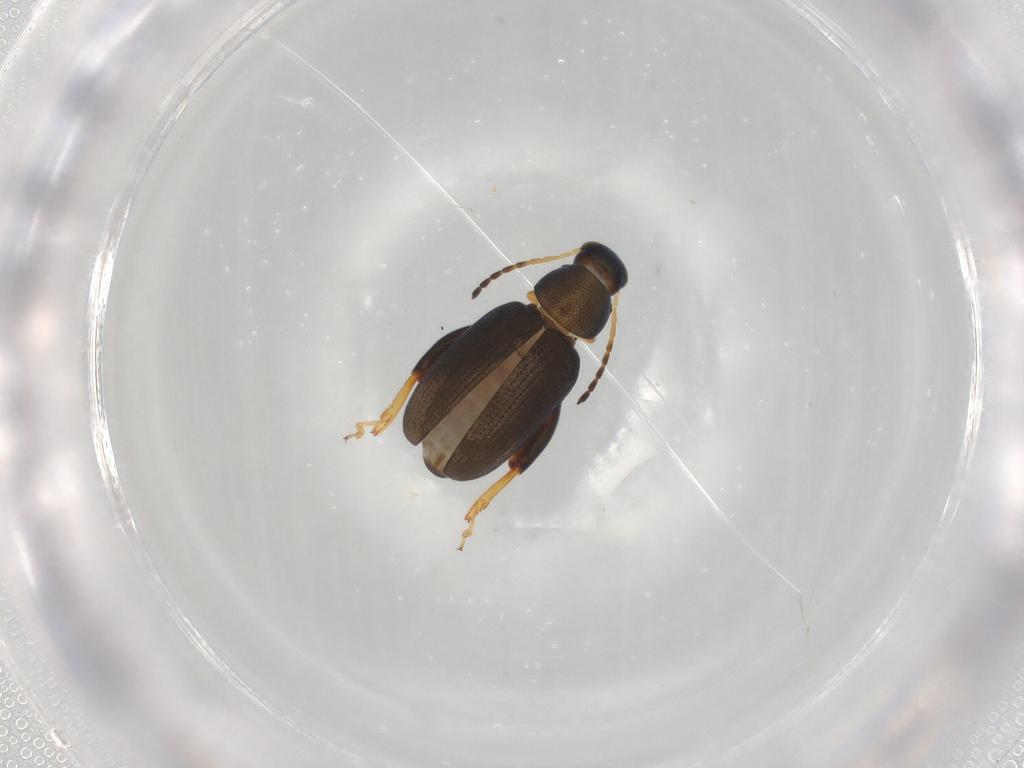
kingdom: Animalia
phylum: Arthropoda
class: Insecta
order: Coleoptera
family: Chrysomelidae
